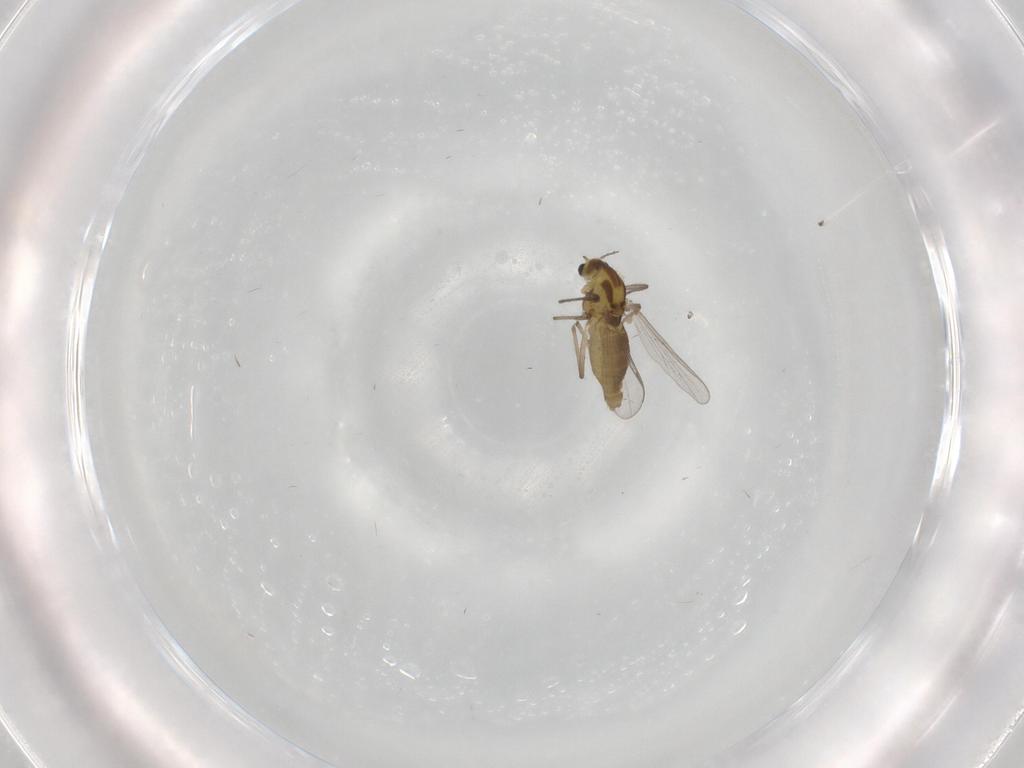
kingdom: Animalia
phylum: Arthropoda
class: Insecta
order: Diptera
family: Chironomidae
